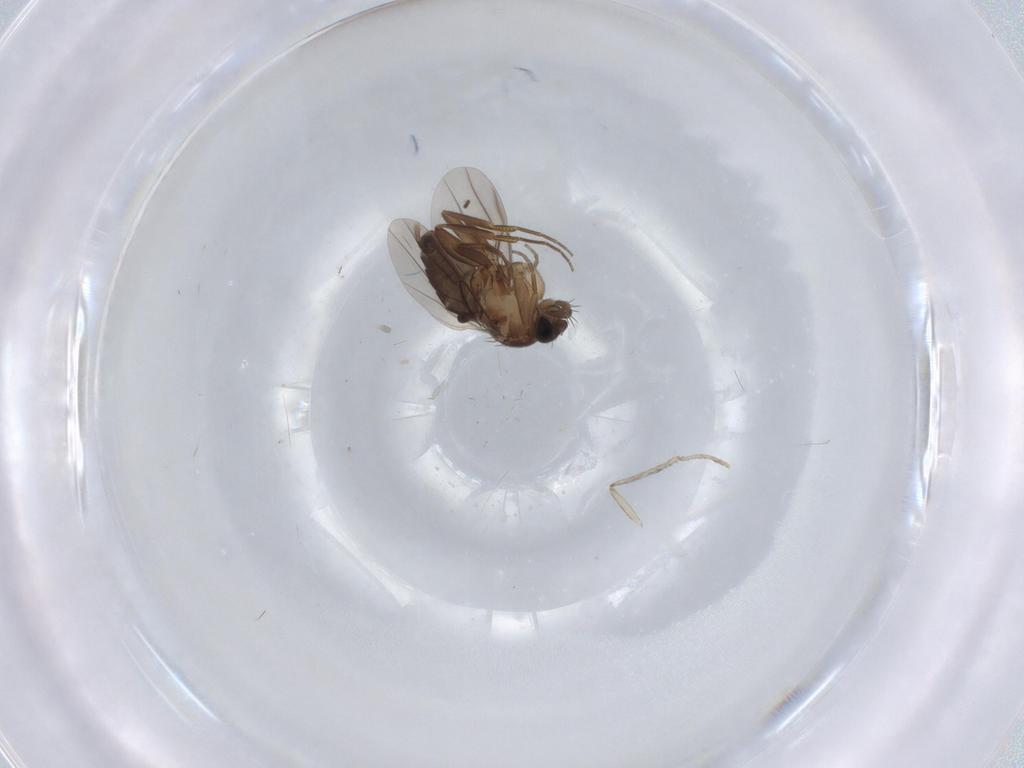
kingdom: Animalia
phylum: Arthropoda
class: Insecta
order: Diptera
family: Phoridae
